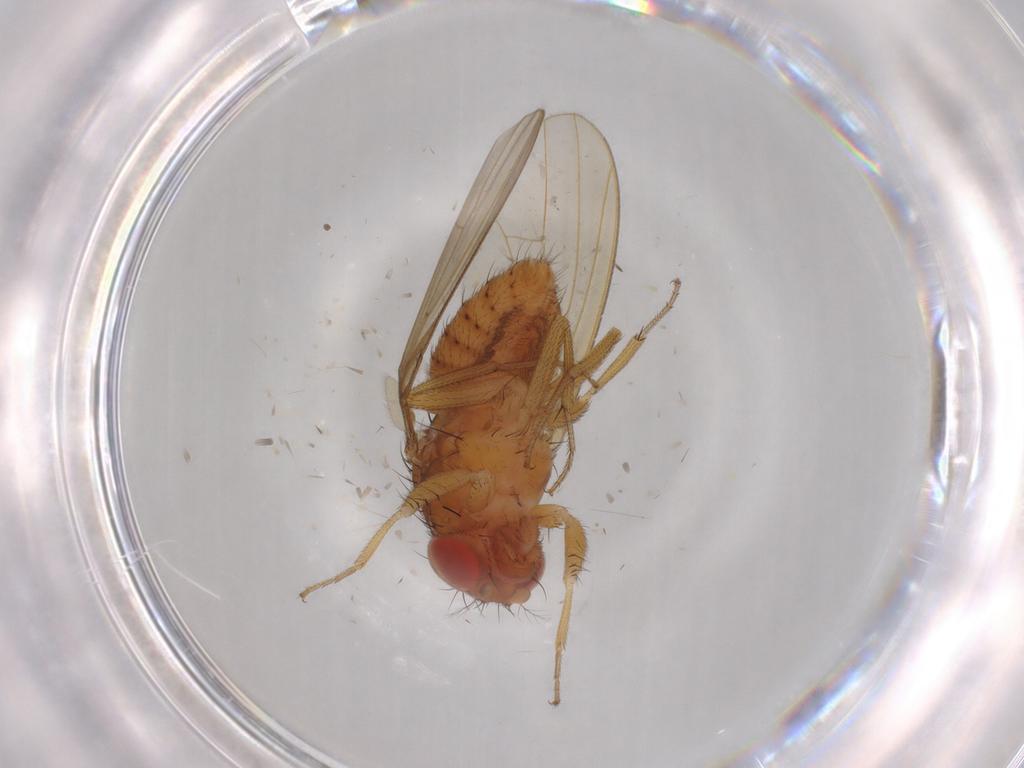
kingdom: Animalia
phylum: Arthropoda
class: Insecta
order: Diptera
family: Drosophilidae
